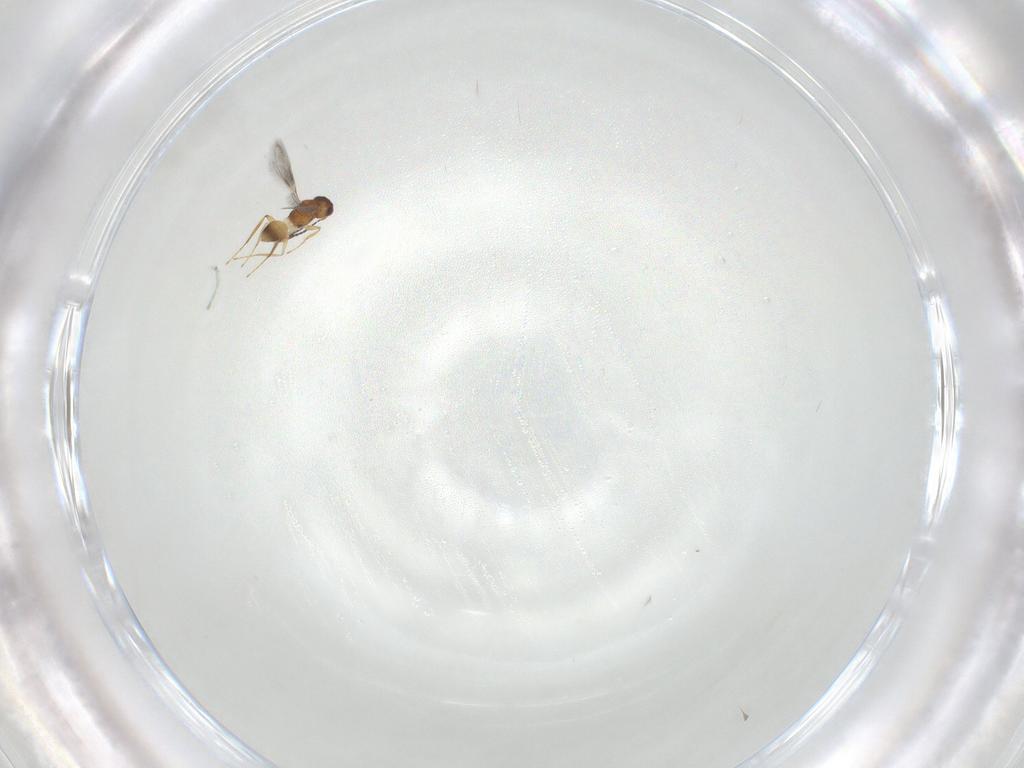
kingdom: Animalia
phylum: Arthropoda
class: Insecta
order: Hymenoptera
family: Mymaridae
